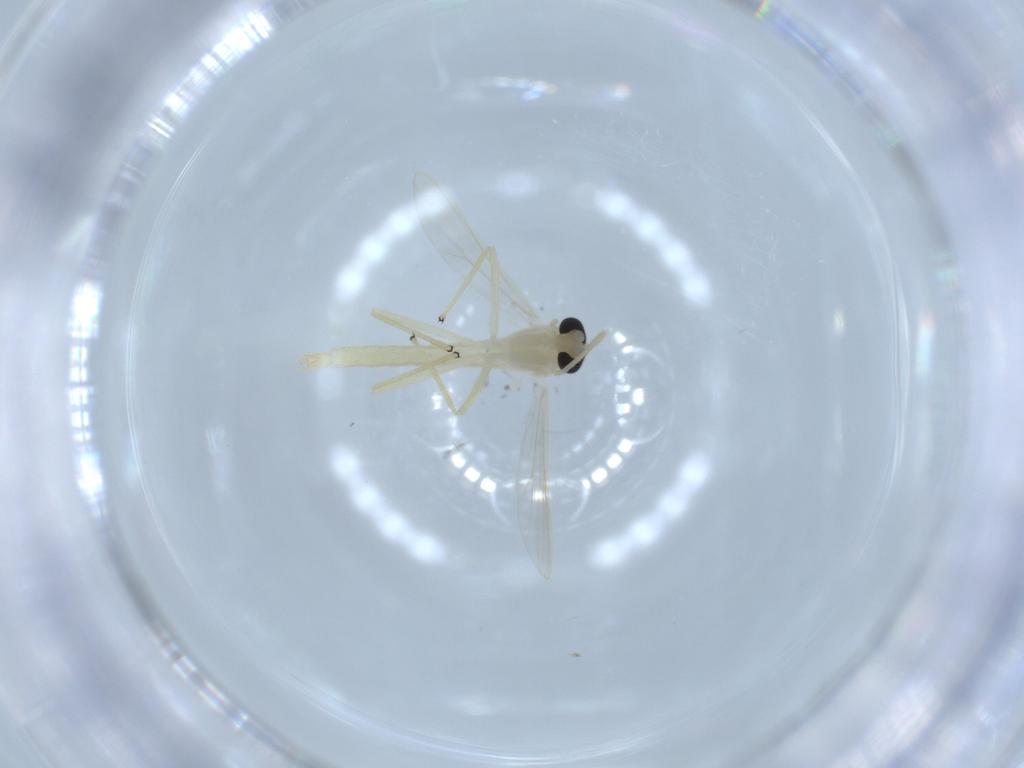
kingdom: Animalia
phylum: Arthropoda
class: Insecta
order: Diptera
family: Chironomidae
